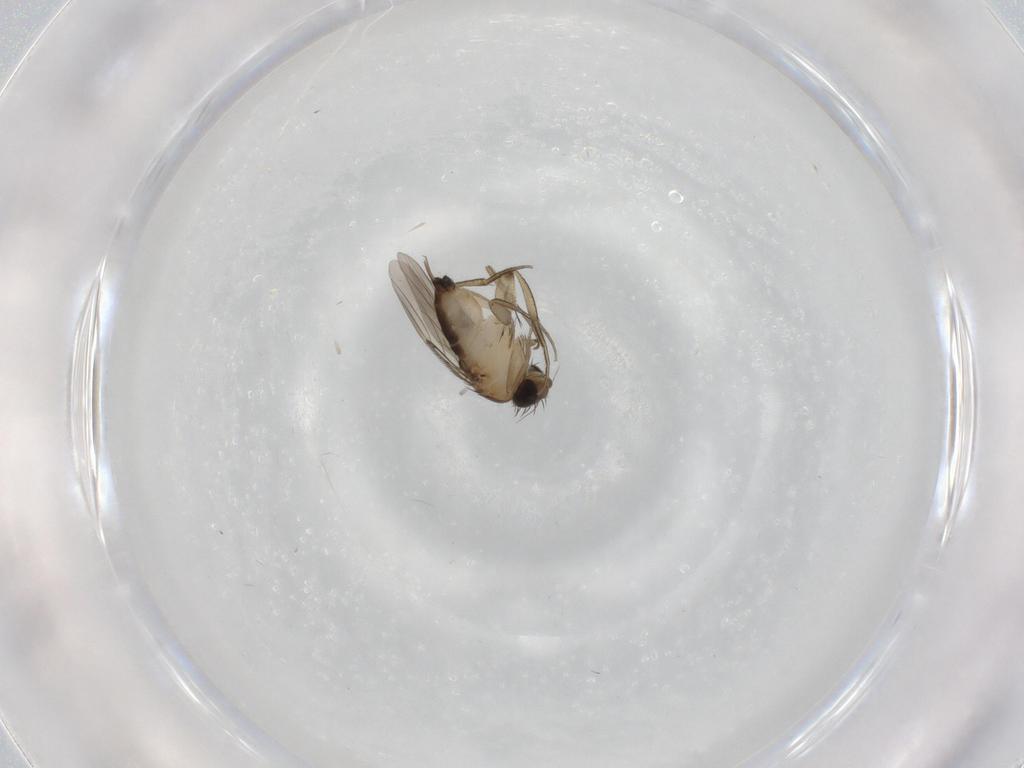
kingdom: Animalia
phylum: Arthropoda
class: Insecta
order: Diptera
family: Phoridae
